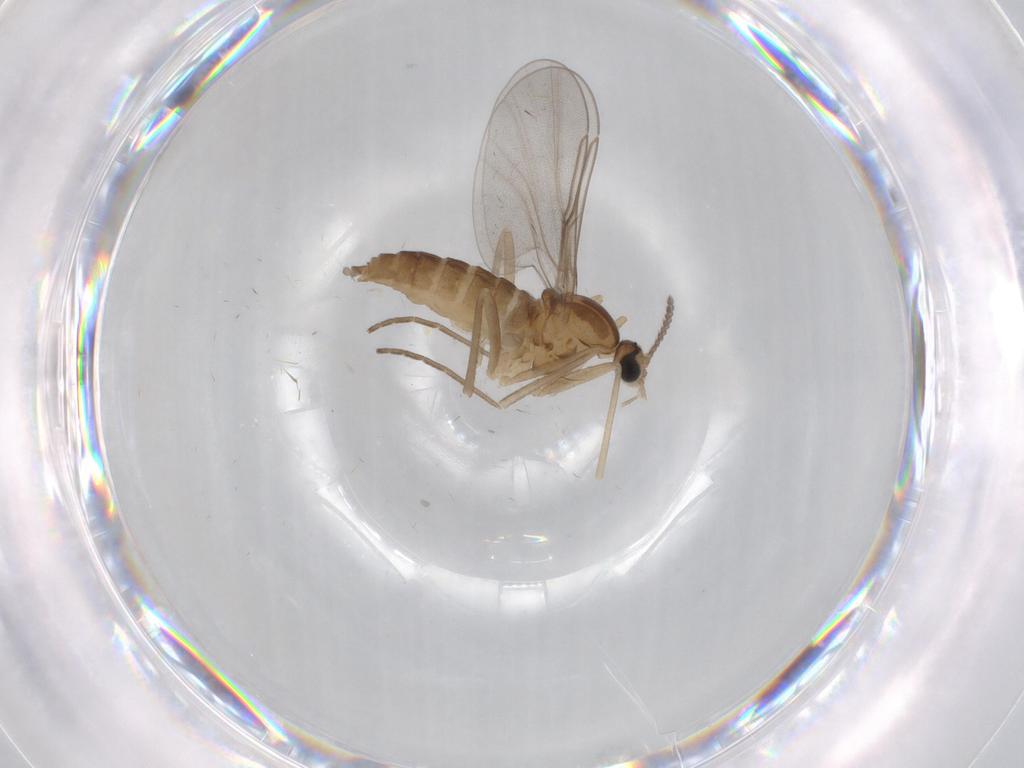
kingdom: Animalia
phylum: Arthropoda
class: Insecta
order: Diptera
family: Cecidomyiidae
